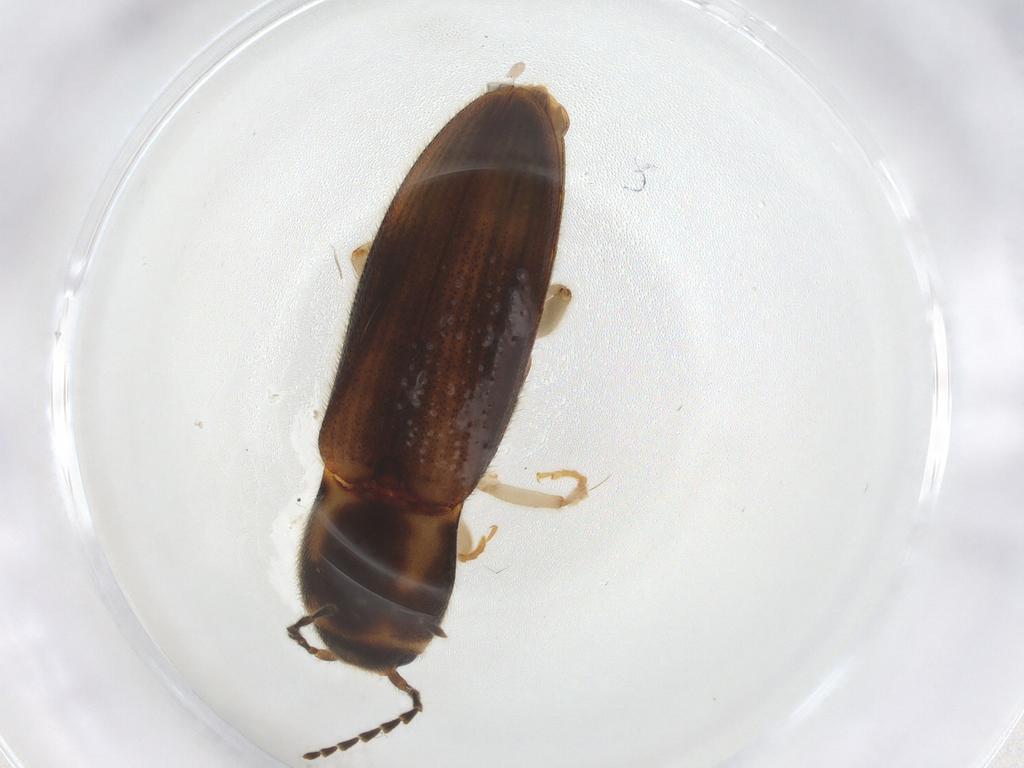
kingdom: Animalia
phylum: Arthropoda
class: Insecta
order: Coleoptera
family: Elateridae
